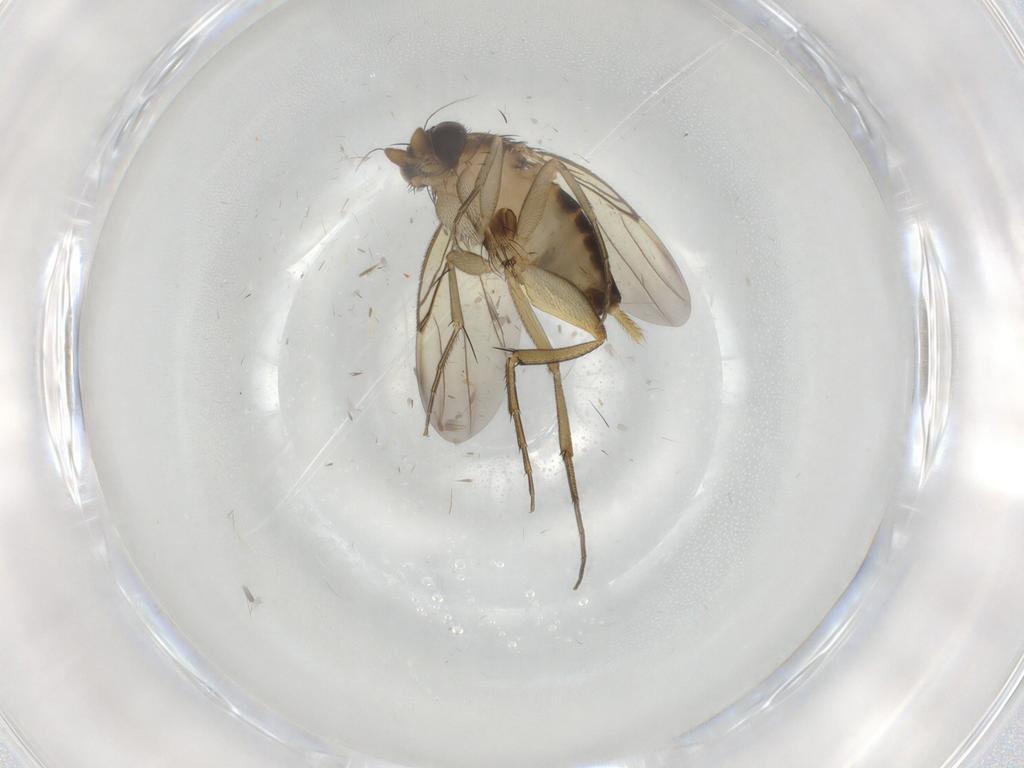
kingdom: Animalia
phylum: Arthropoda
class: Insecta
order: Diptera
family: Phoridae
